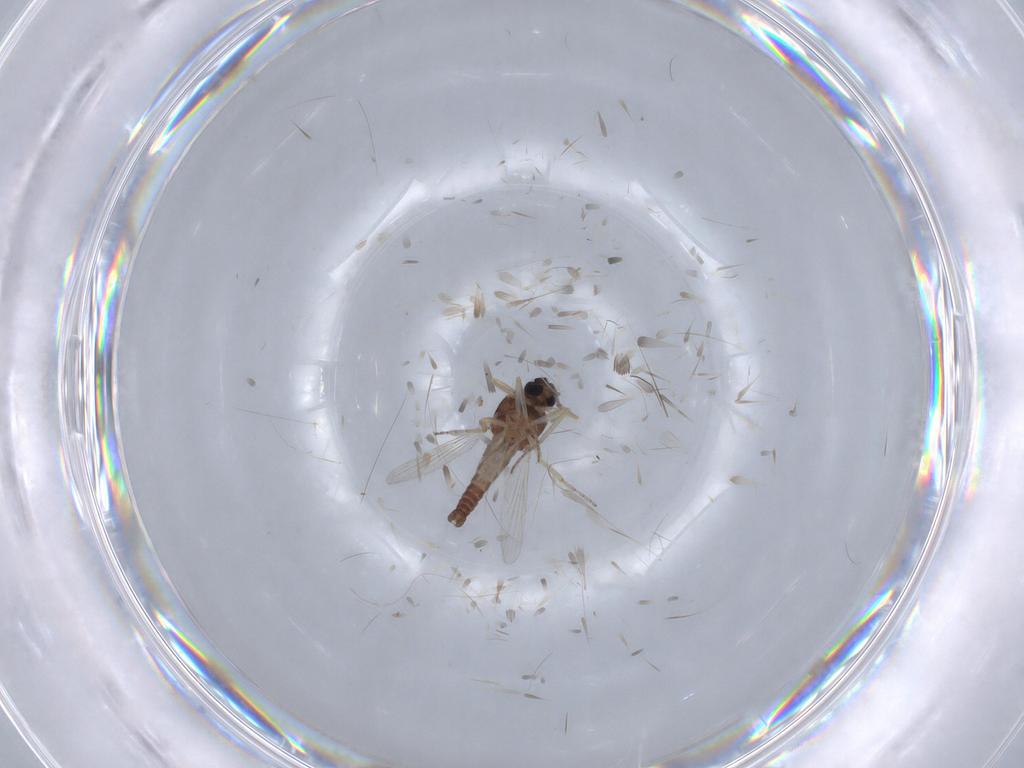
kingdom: Animalia
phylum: Arthropoda
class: Insecta
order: Diptera
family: Ceratopogonidae
